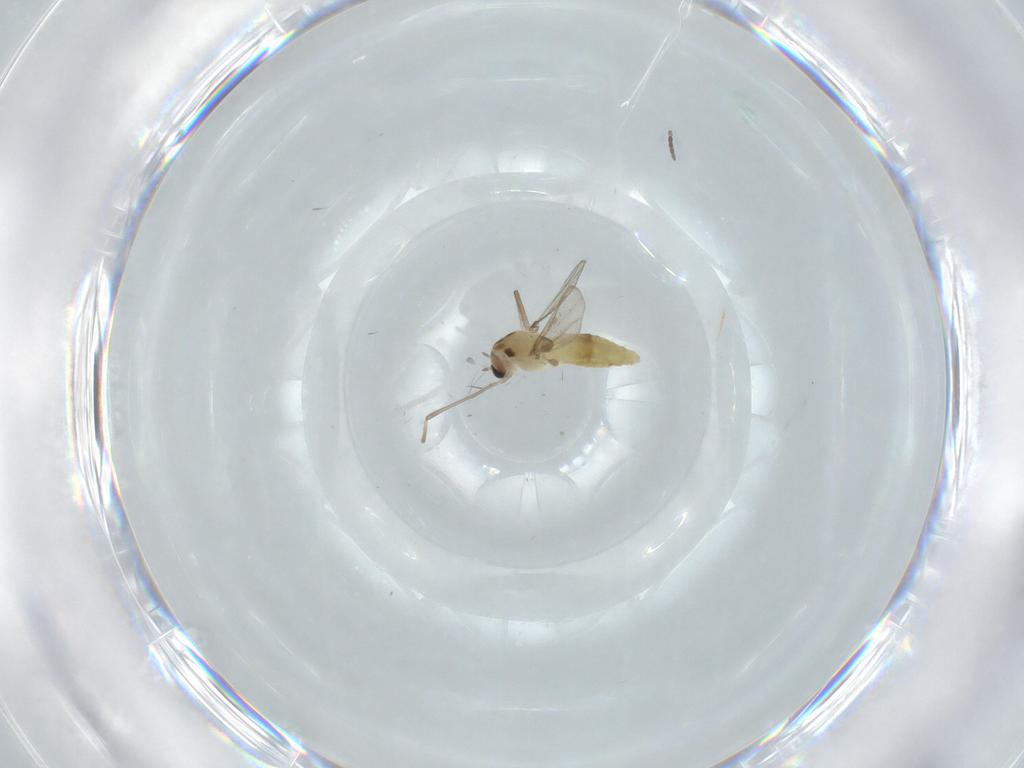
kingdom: Animalia
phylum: Arthropoda
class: Insecta
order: Diptera
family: Chironomidae
